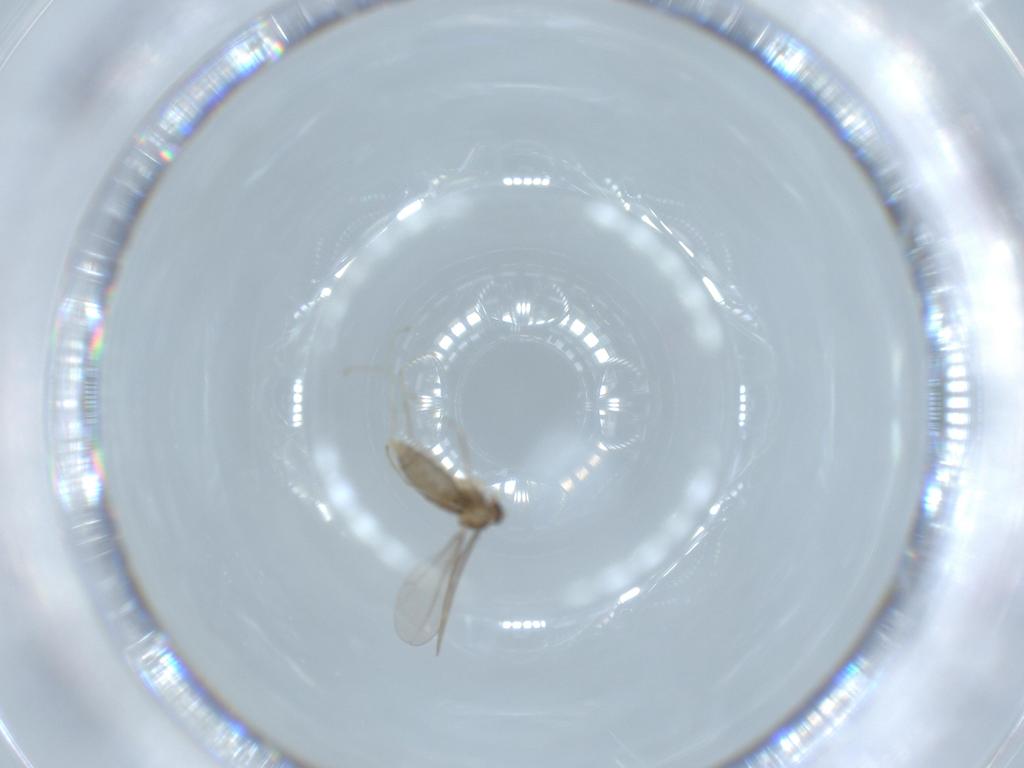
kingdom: Animalia
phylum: Arthropoda
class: Insecta
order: Diptera
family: Cecidomyiidae
